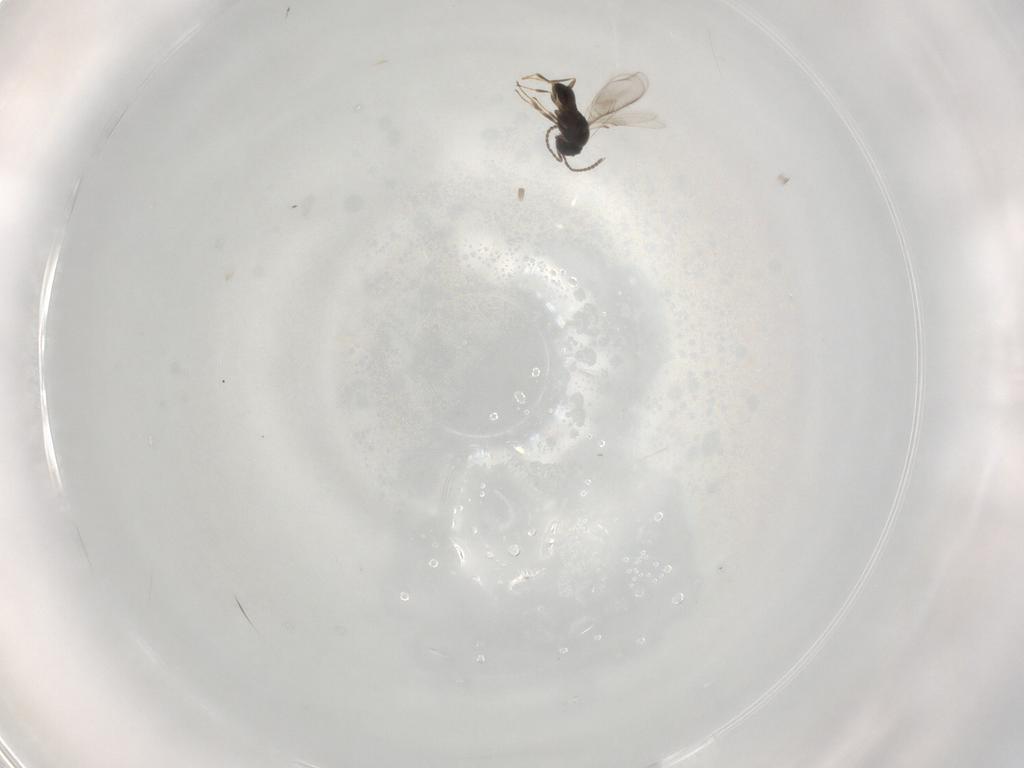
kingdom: Animalia
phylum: Arthropoda
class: Insecta
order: Hymenoptera
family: Scelionidae
